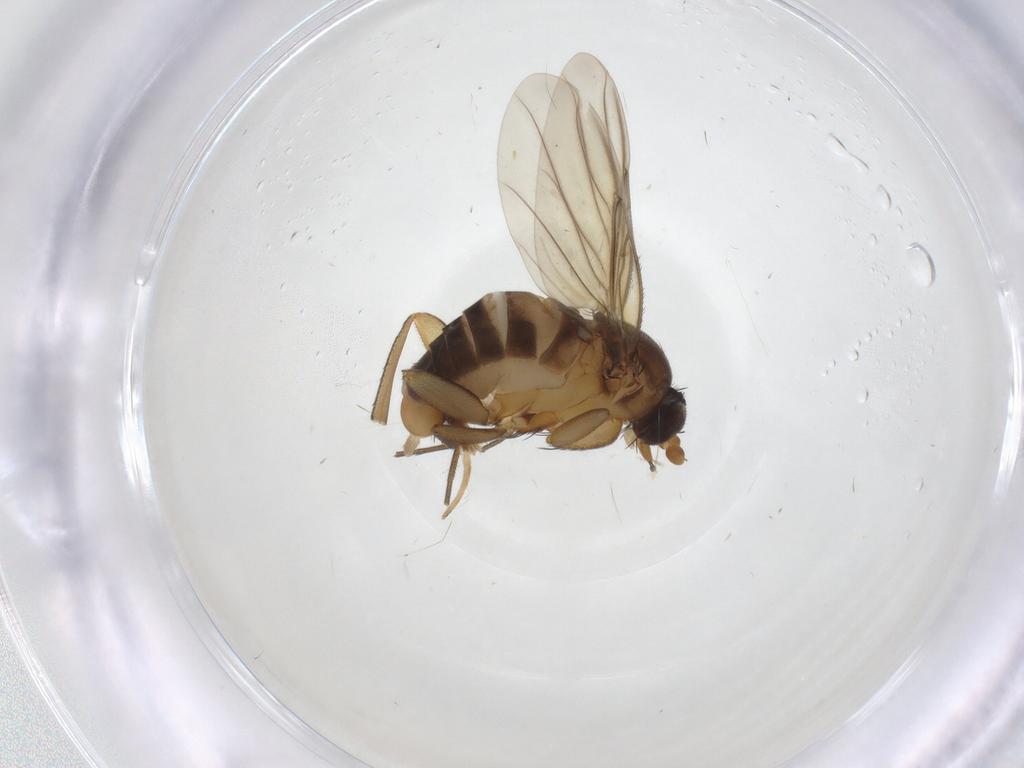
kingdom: Animalia
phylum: Arthropoda
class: Insecta
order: Diptera
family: Phoridae
